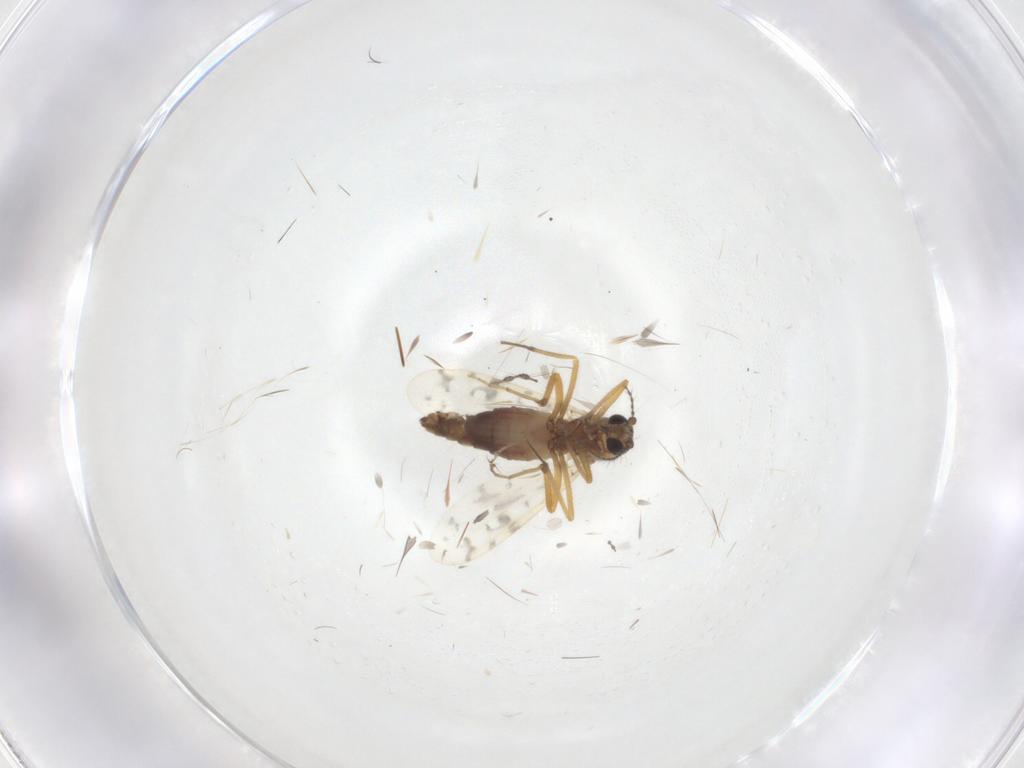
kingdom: Animalia
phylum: Arthropoda
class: Insecta
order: Diptera
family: Ceratopogonidae
